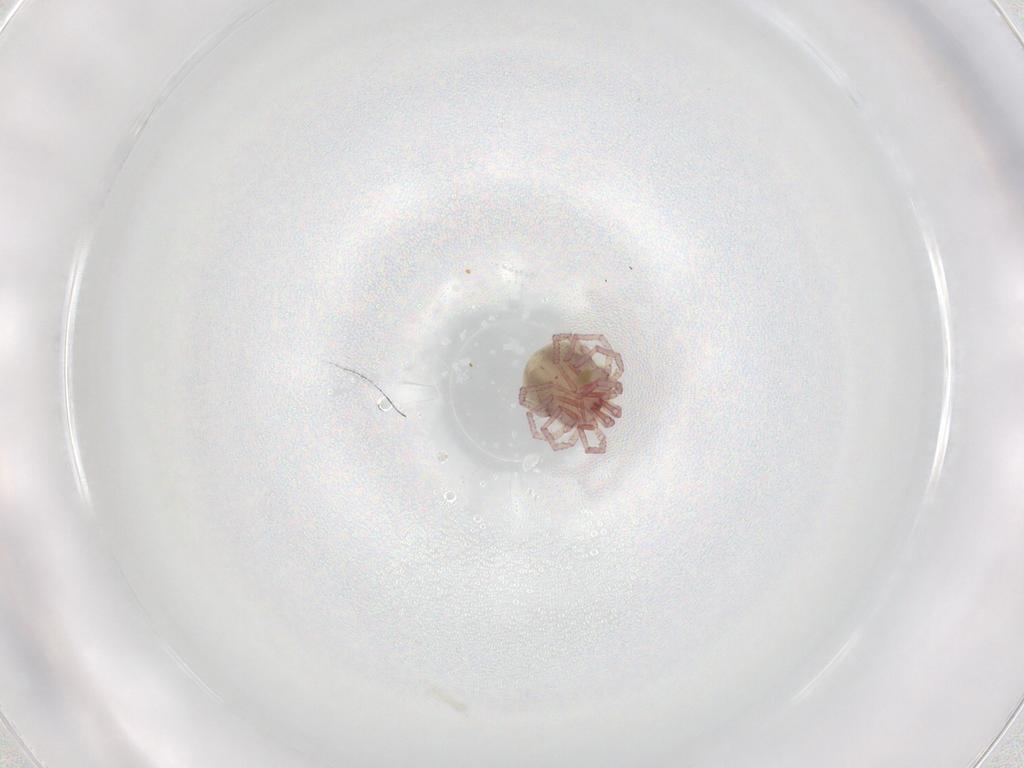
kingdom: Animalia
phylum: Arthropoda
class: Arachnida
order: Trombidiformes
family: Pionidae
